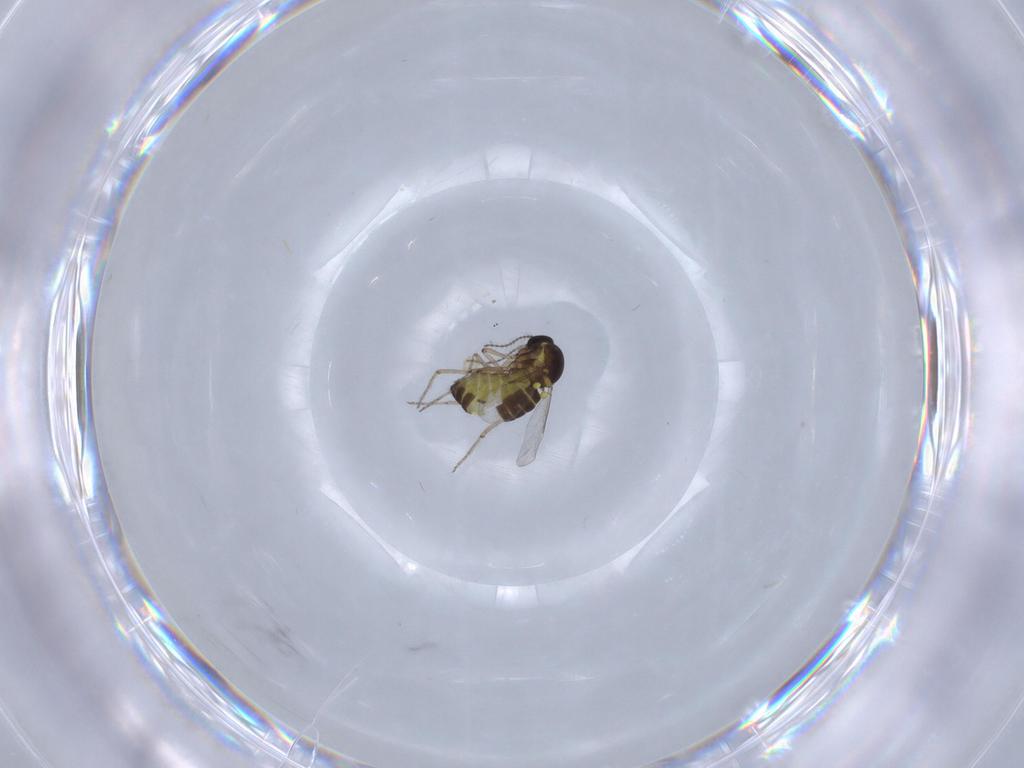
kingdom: Animalia
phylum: Arthropoda
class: Insecta
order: Diptera
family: Ceratopogonidae
